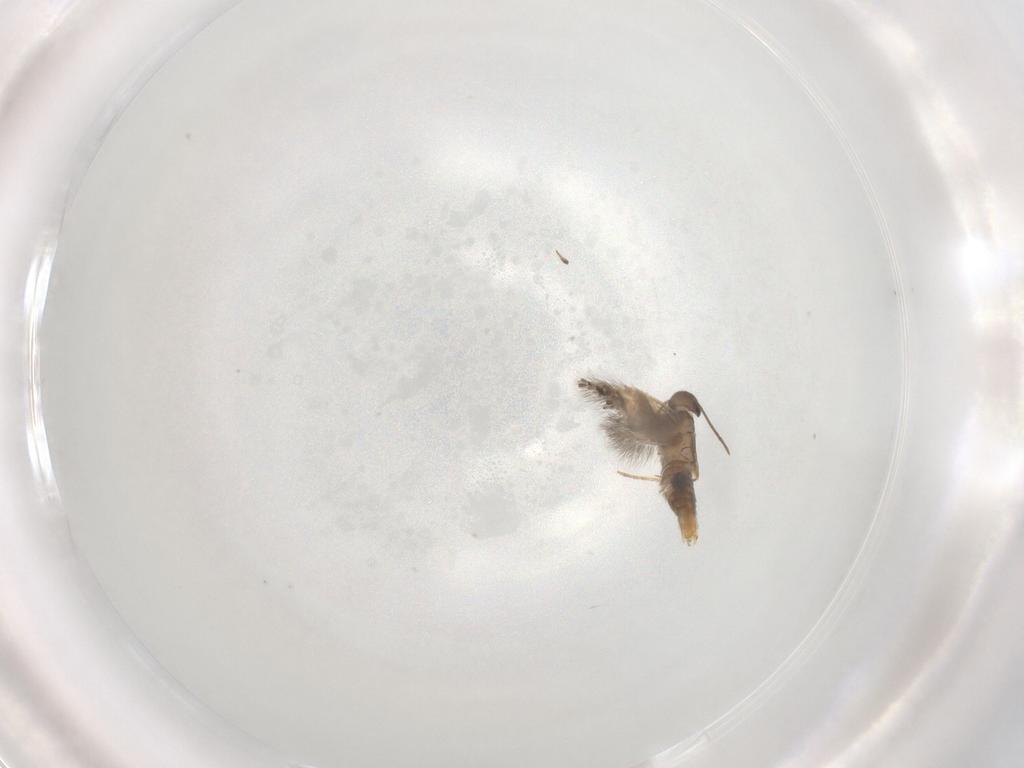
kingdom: Animalia
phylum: Arthropoda
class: Insecta
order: Lepidoptera
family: Heliozelidae
